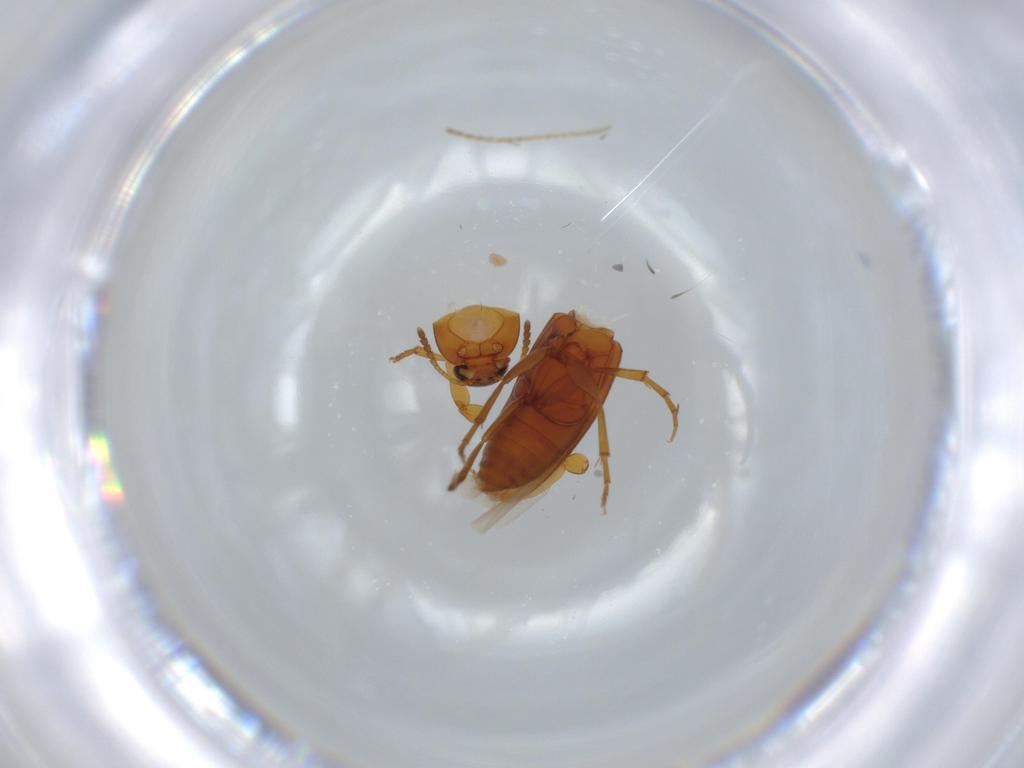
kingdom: Animalia
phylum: Arthropoda
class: Insecta
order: Coleoptera
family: Scraptiidae
